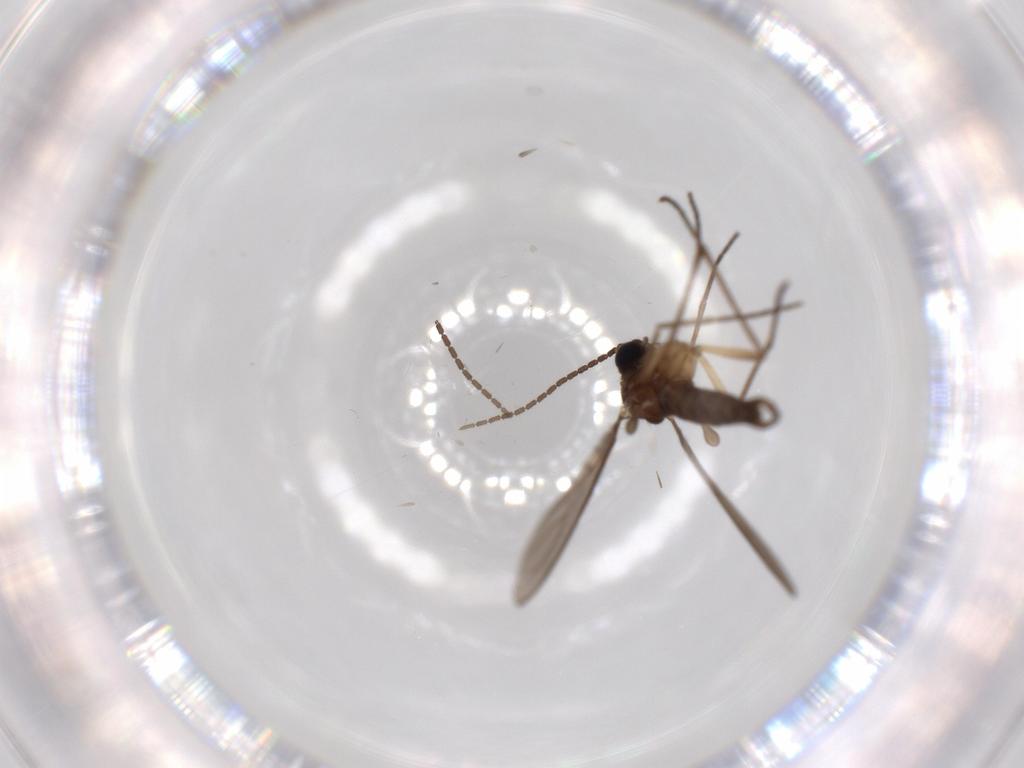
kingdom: Animalia
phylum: Arthropoda
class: Insecta
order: Diptera
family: Sciaridae
